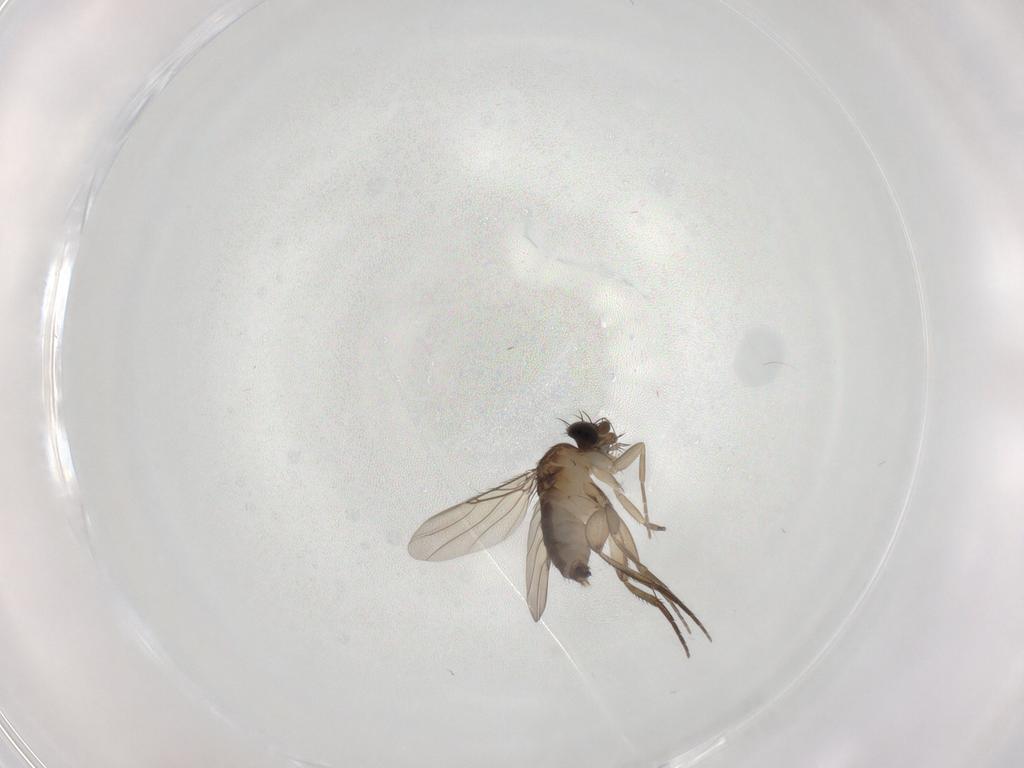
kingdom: Animalia
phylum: Arthropoda
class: Insecta
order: Diptera
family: Phoridae
